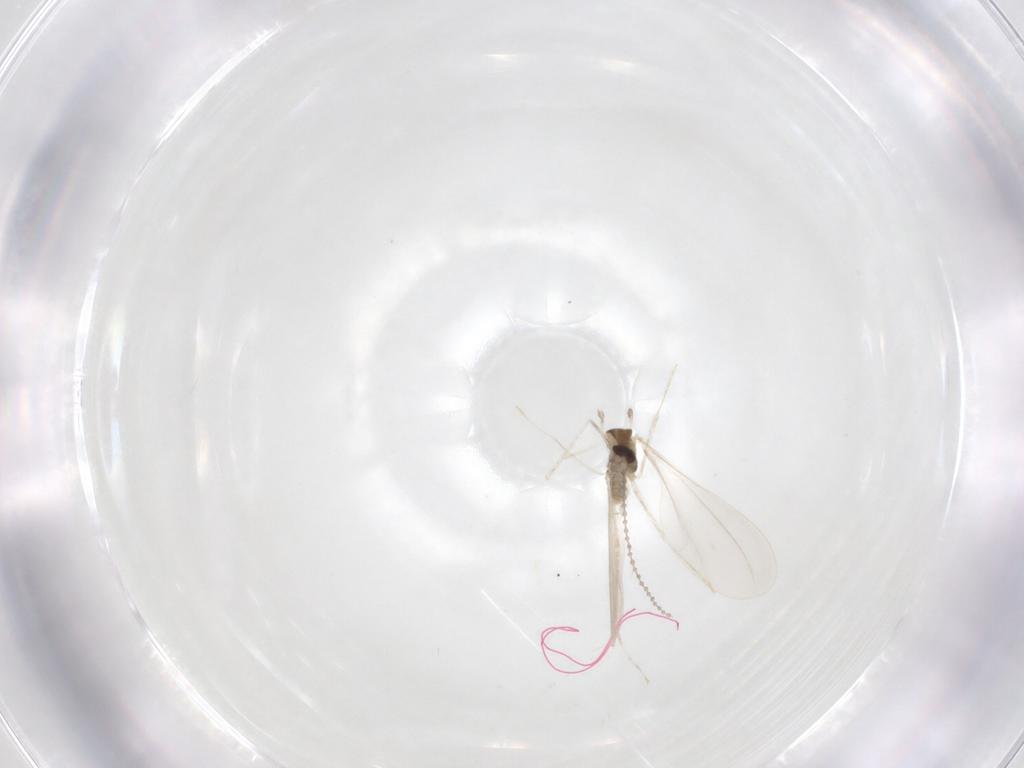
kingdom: Animalia
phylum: Arthropoda
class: Insecta
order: Diptera
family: Cecidomyiidae
